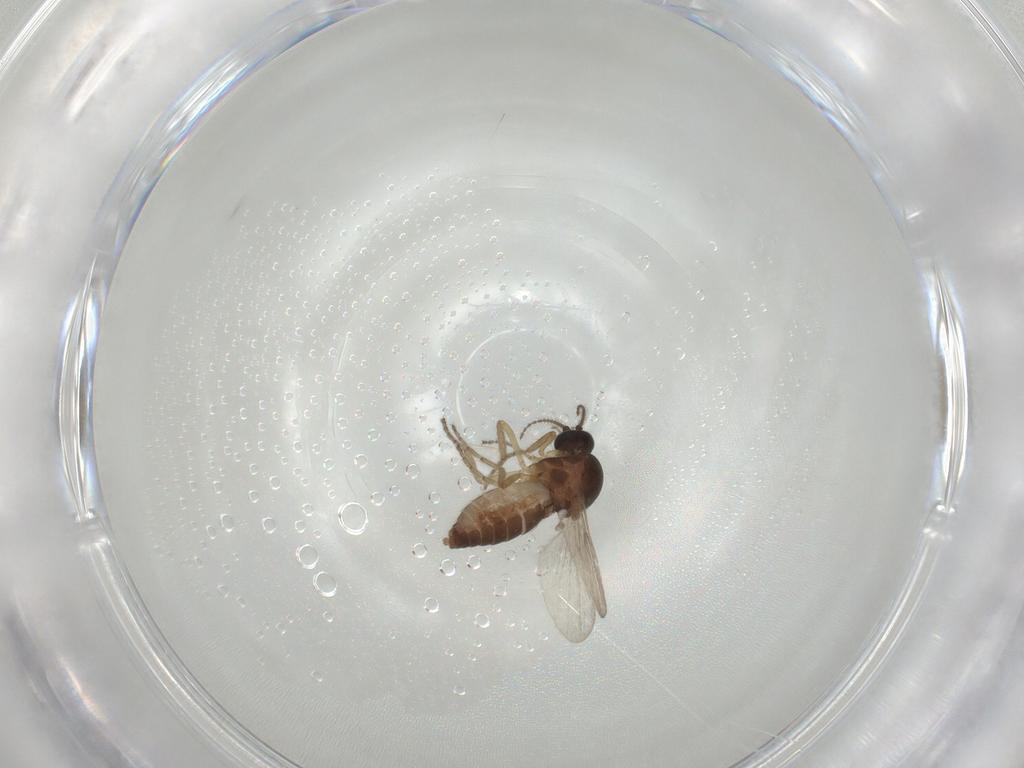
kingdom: Animalia
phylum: Arthropoda
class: Insecta
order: Diptera
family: Ceratopogonidae
